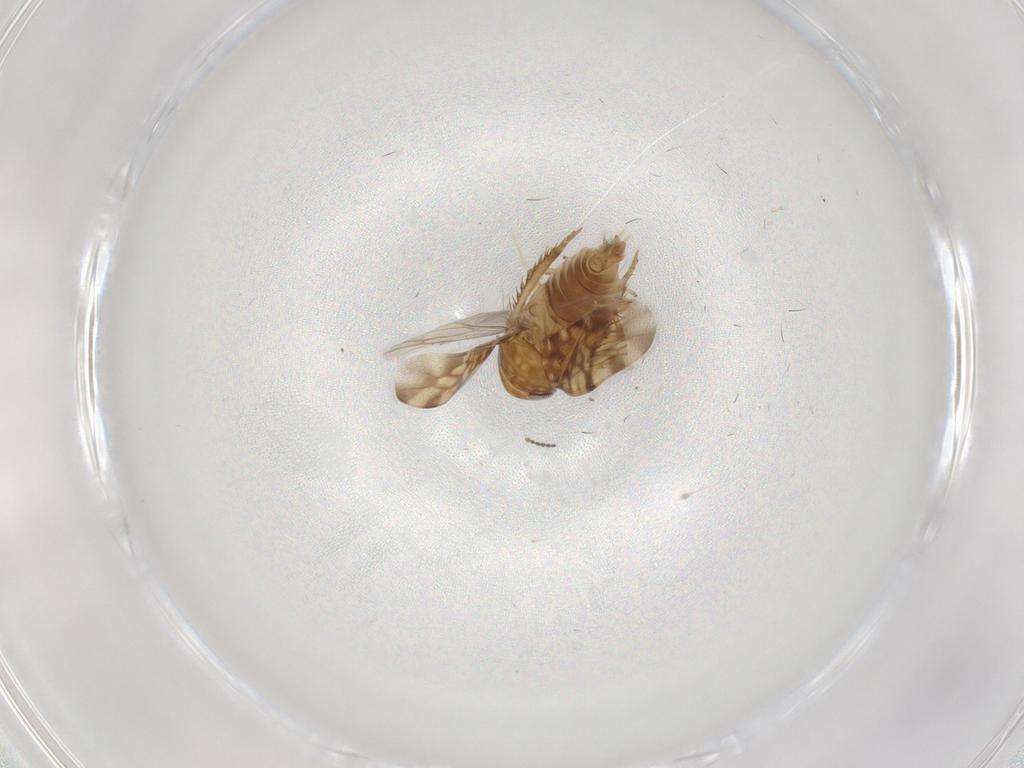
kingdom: Animalia
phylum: Arthropoda
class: Insecta
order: Hemiptera
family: Cicadellidae
